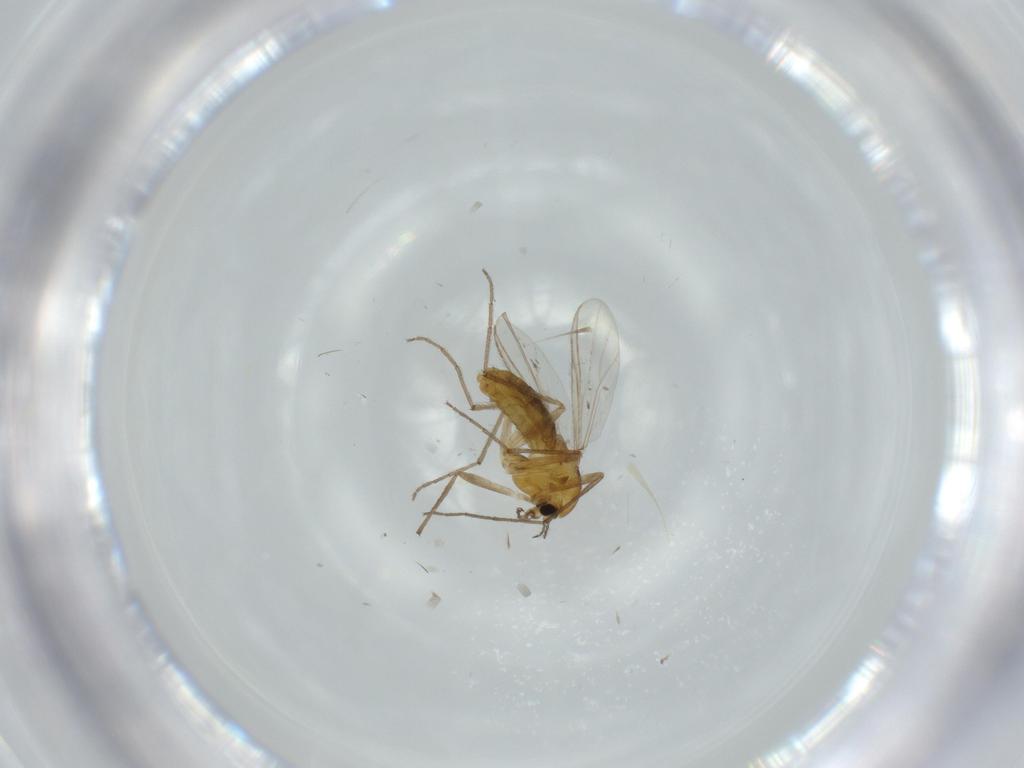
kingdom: Animalia
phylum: Arthropoda
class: Insecta
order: Diptera
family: Chironomidae
